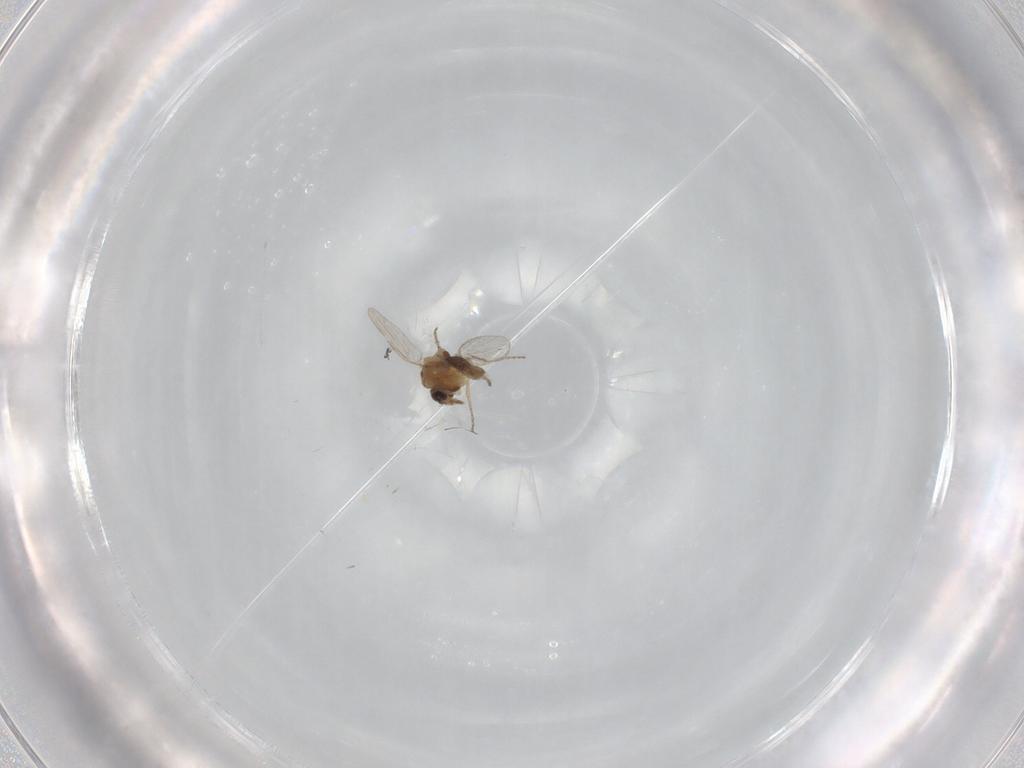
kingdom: Animalia
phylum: Arthropoda
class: Insecta
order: Diptera
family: Ceratopogonidae
